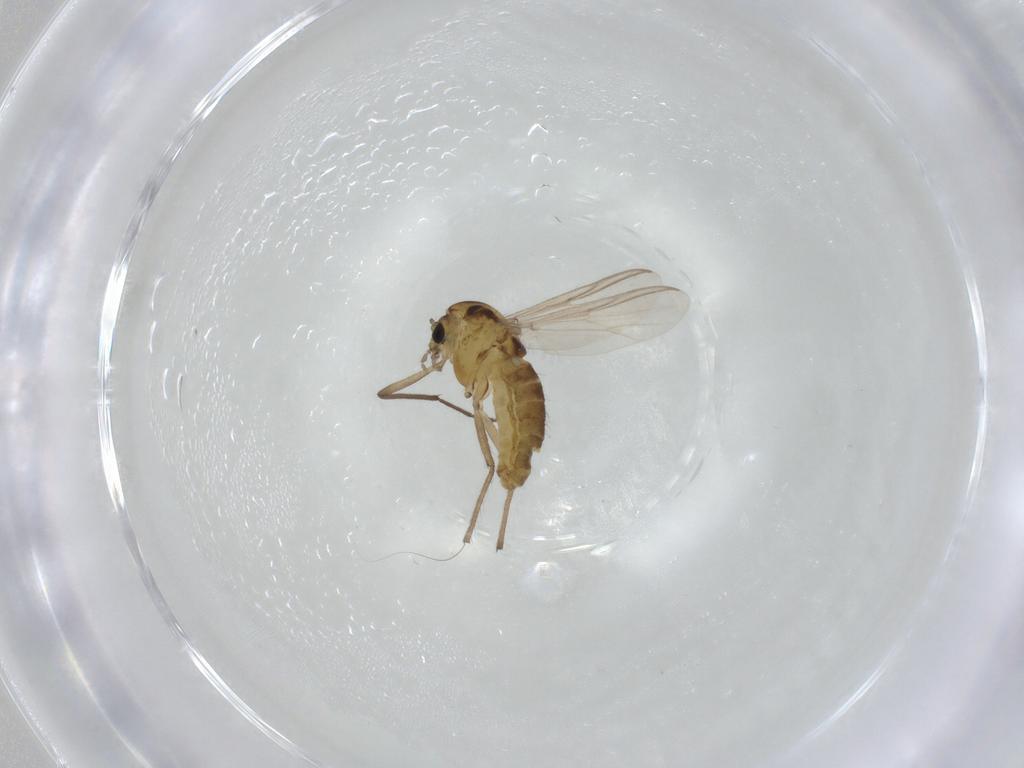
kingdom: Animalia
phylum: Arthropoda
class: Insecta
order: Diptera
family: Chironomidae
